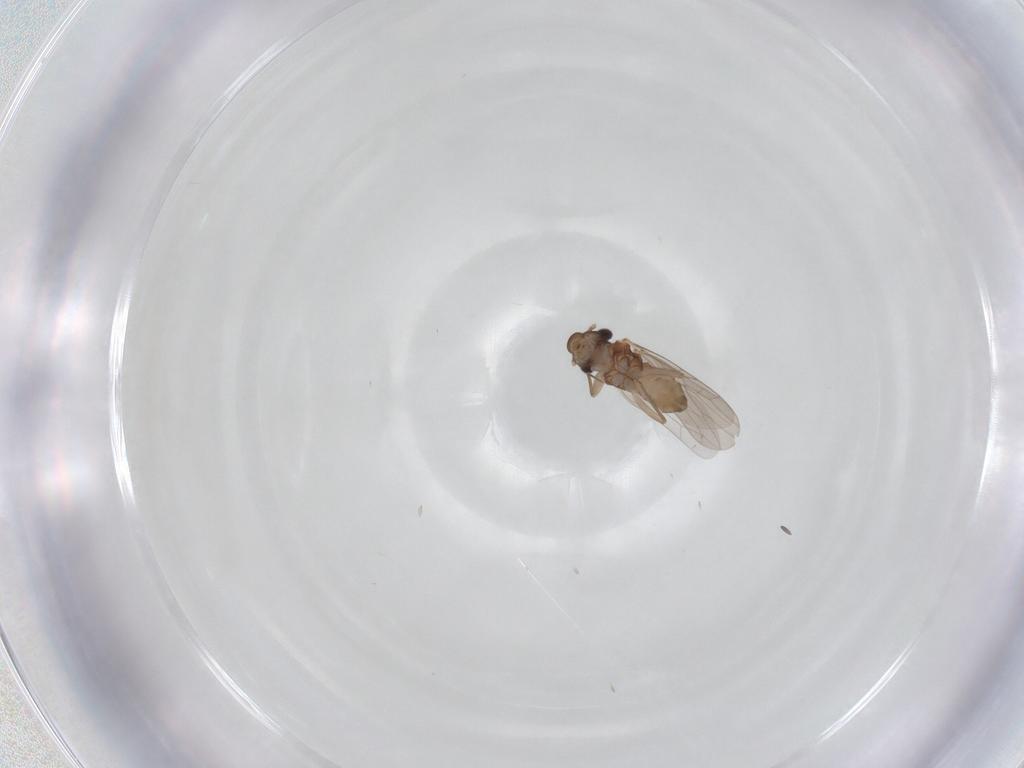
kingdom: Animalia
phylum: Arthropoda
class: Insecta
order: Psocodea
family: Lepidopsocidae
